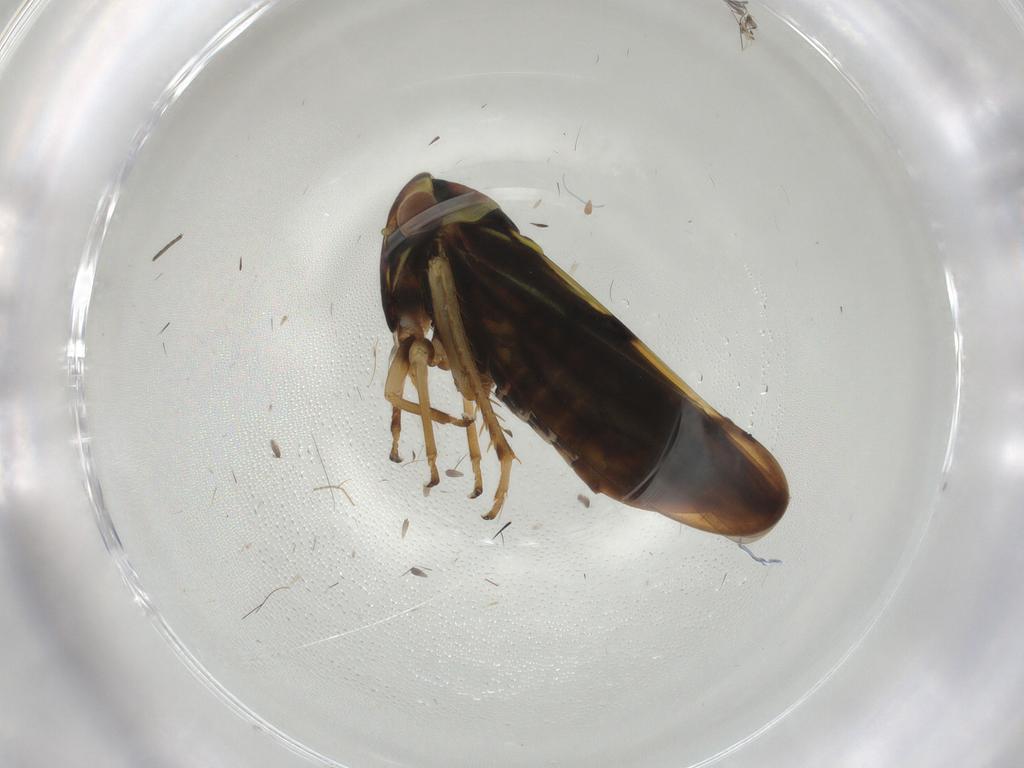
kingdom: Animalia
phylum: Arthropoda
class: Insecta
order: Hemiptera
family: Cicadellidae
